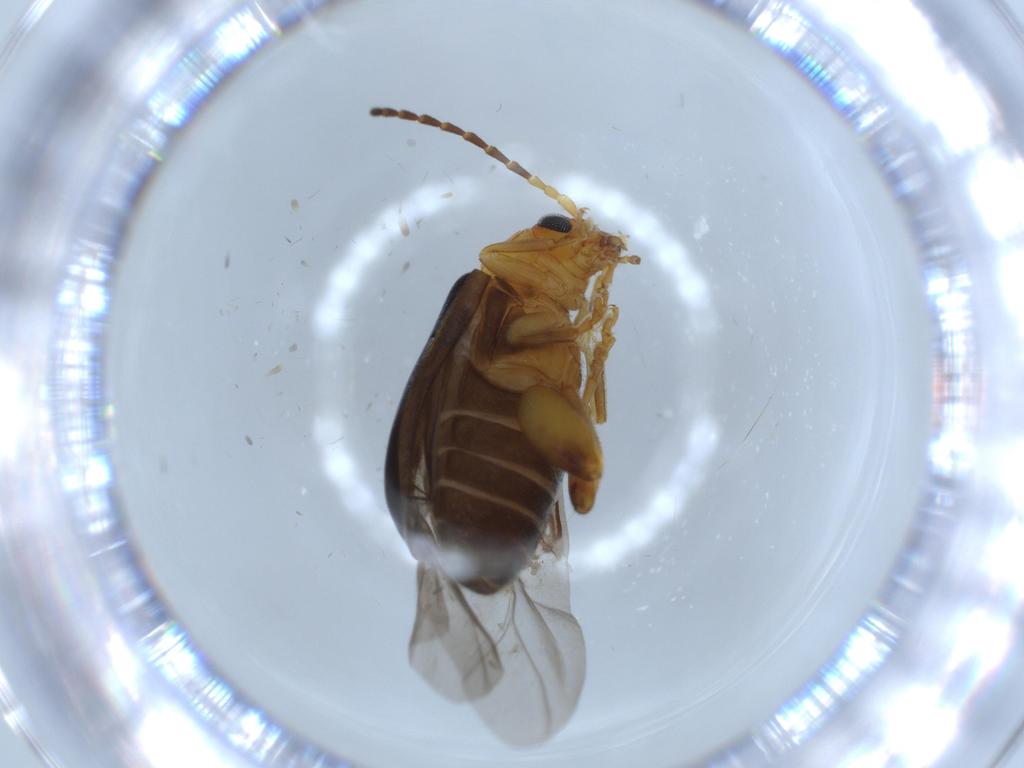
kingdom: Animalia
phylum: Arthropoda
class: Insecta
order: Coleoptera
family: Chrysomelidae
